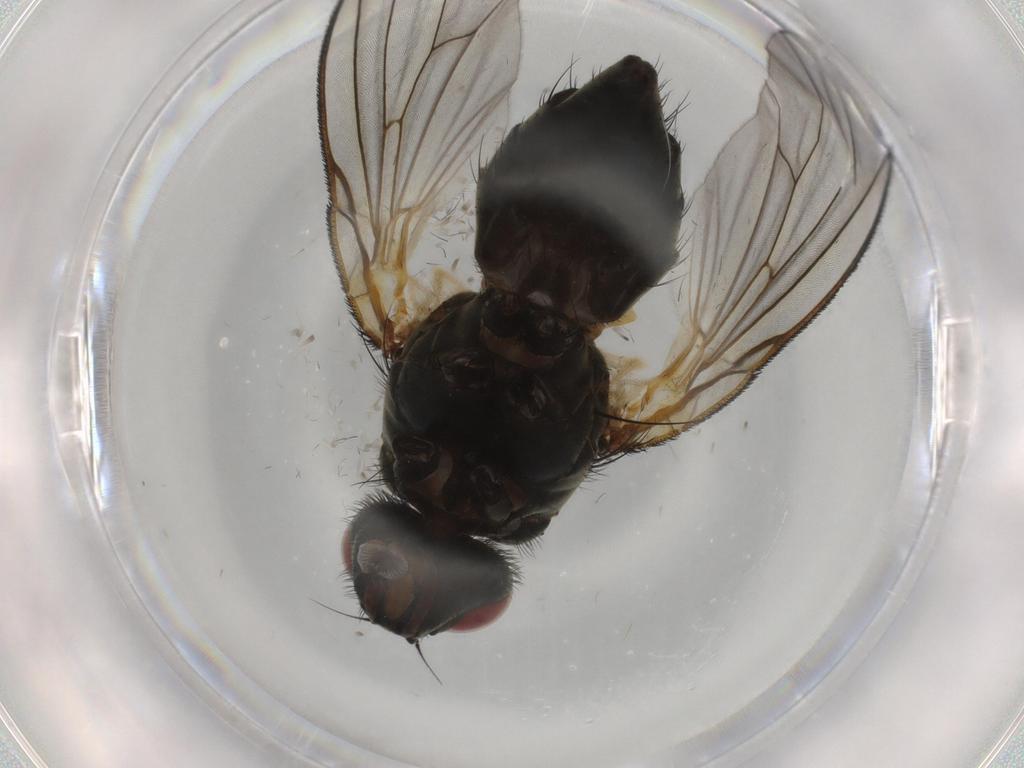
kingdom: Animalia
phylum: Arthropoda
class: Insecta
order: Diptera
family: Muscidae
